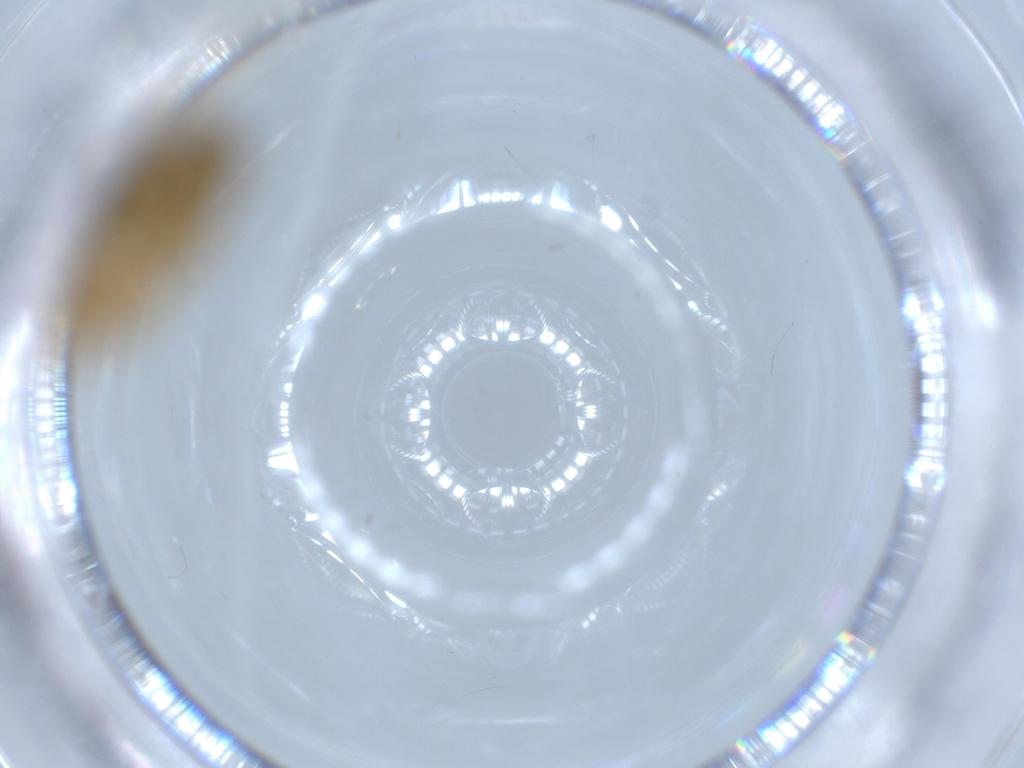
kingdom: Animalia
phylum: Arthropoda
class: Insecta
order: Hemiptera
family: Cicadellidae
